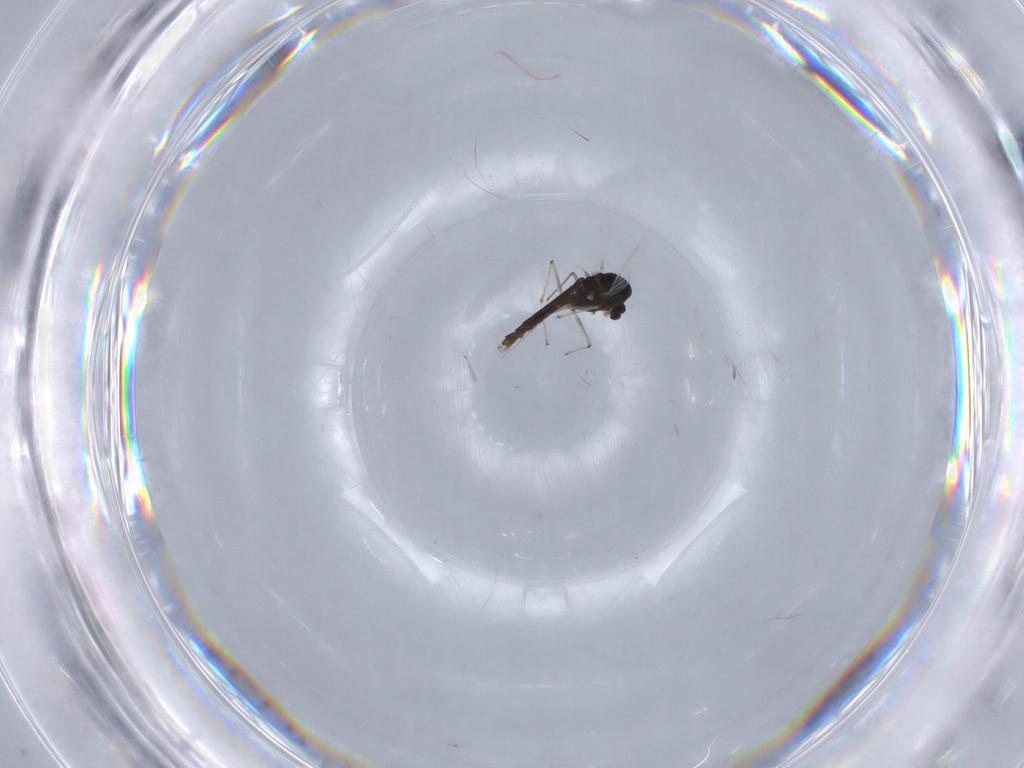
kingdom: Animalia
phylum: Arthropoda
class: Insecta
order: Diptera
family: Chironomidae
